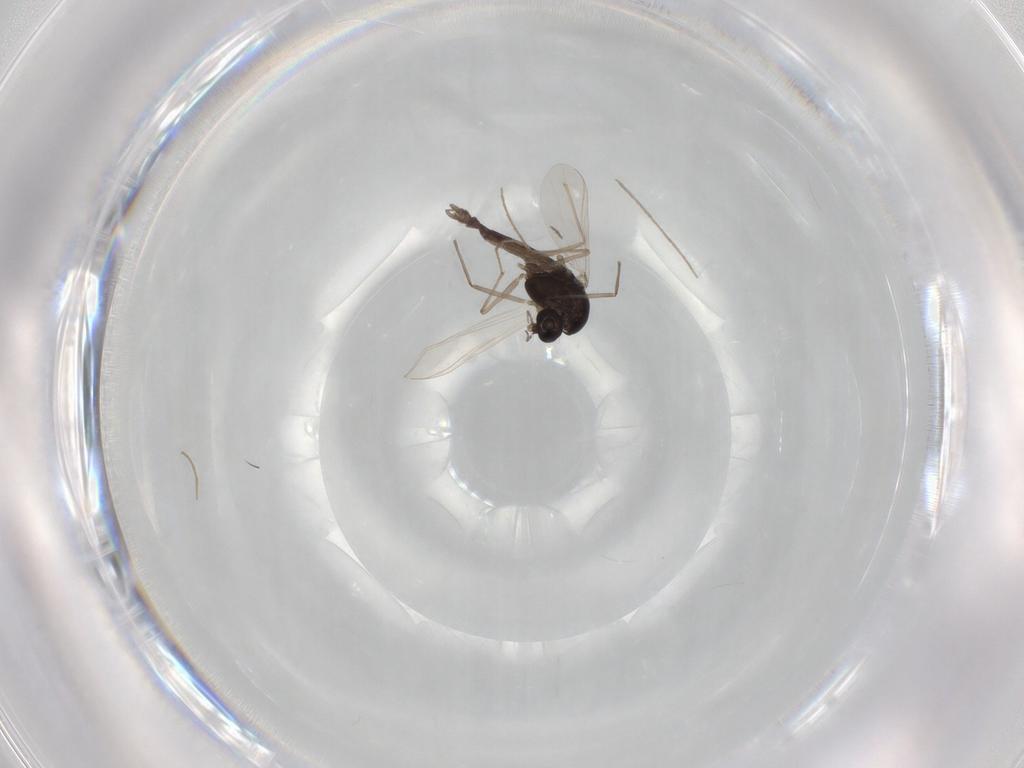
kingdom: Animalia
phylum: Arthropoda
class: Insecta
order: Diptera
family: Chironomidae
